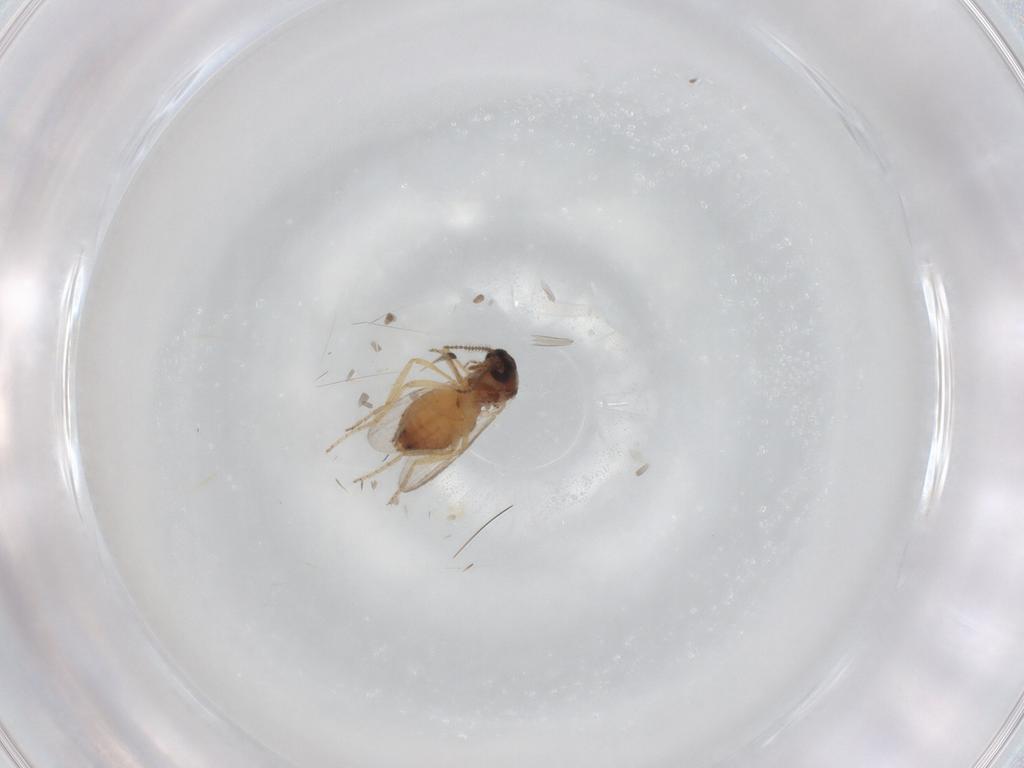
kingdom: Animalia
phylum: Arthropoda
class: Insecta
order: Diptera
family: Ceratopogonidae
